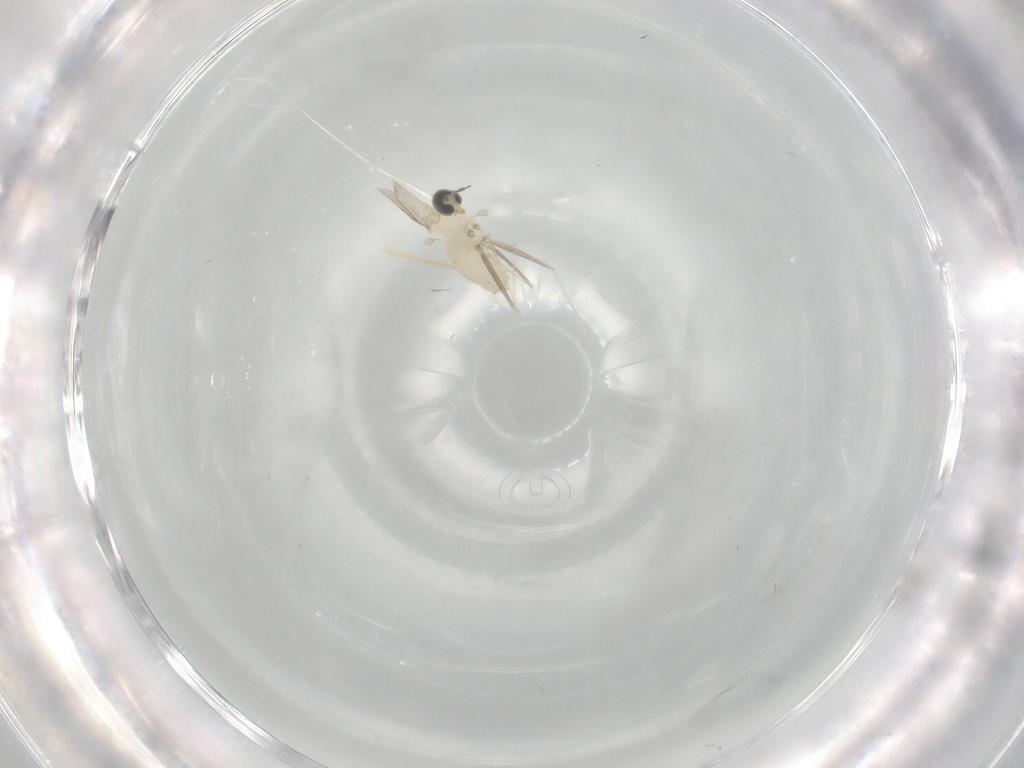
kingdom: Animalia
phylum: Arthropoda
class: Insecta
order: Diptera
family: Cecidomyiidae
